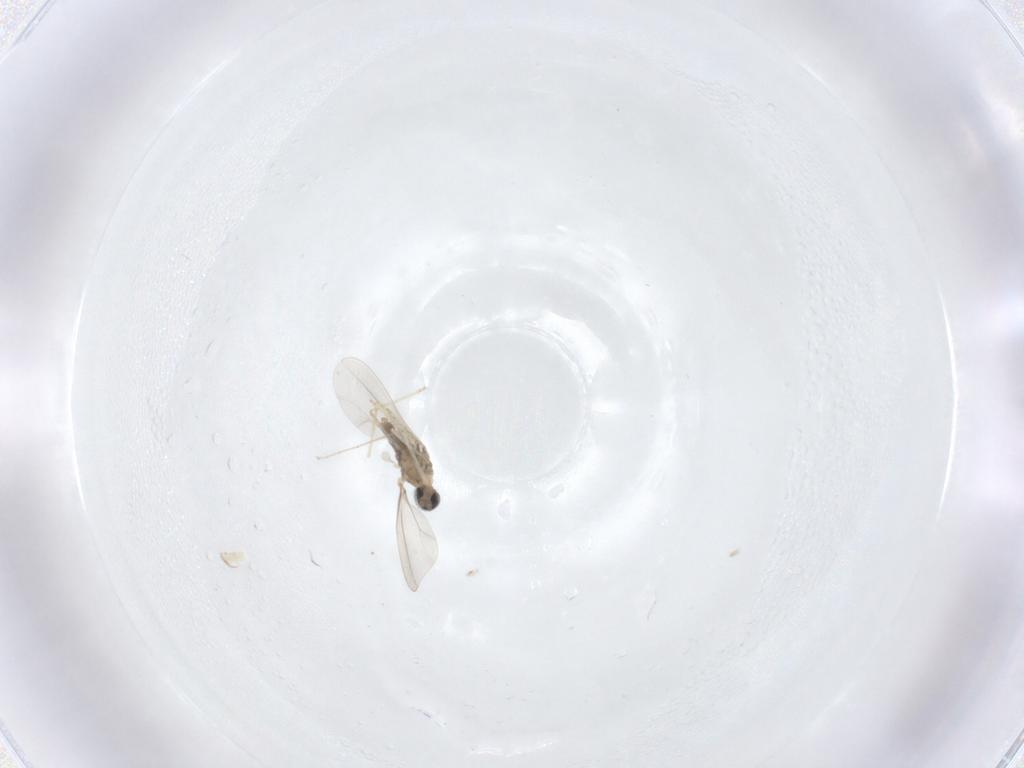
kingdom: Animalia
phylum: Arthropoda
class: Insecta
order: Diptera
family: Cecidomyiidae
